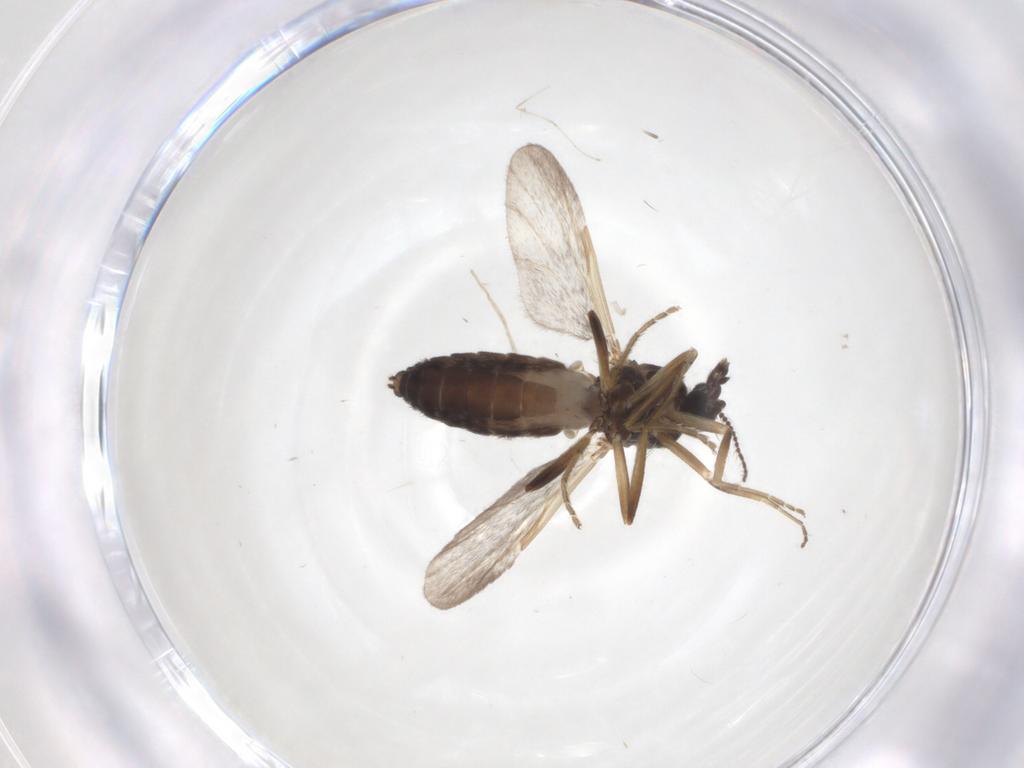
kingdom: Animalia
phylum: Arthropoda
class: Insecta
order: Diptera
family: Ceratopogonidae
